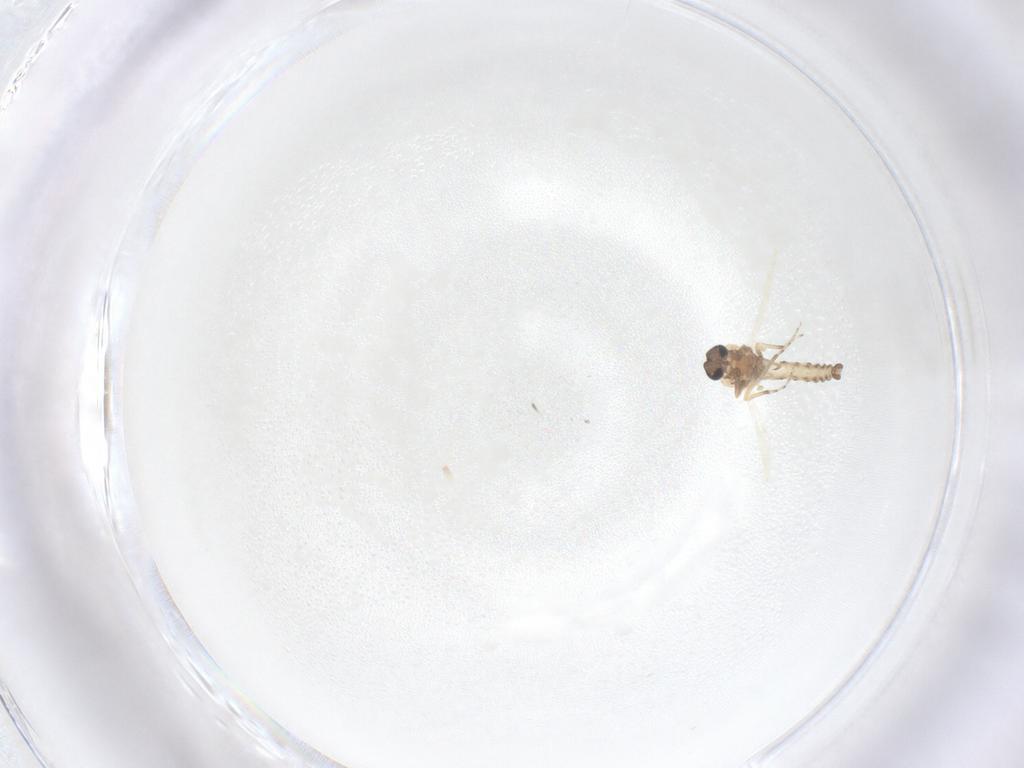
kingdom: Animalia
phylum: Arthropoda
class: Insecta
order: Diptera
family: Ceratopogonidae
